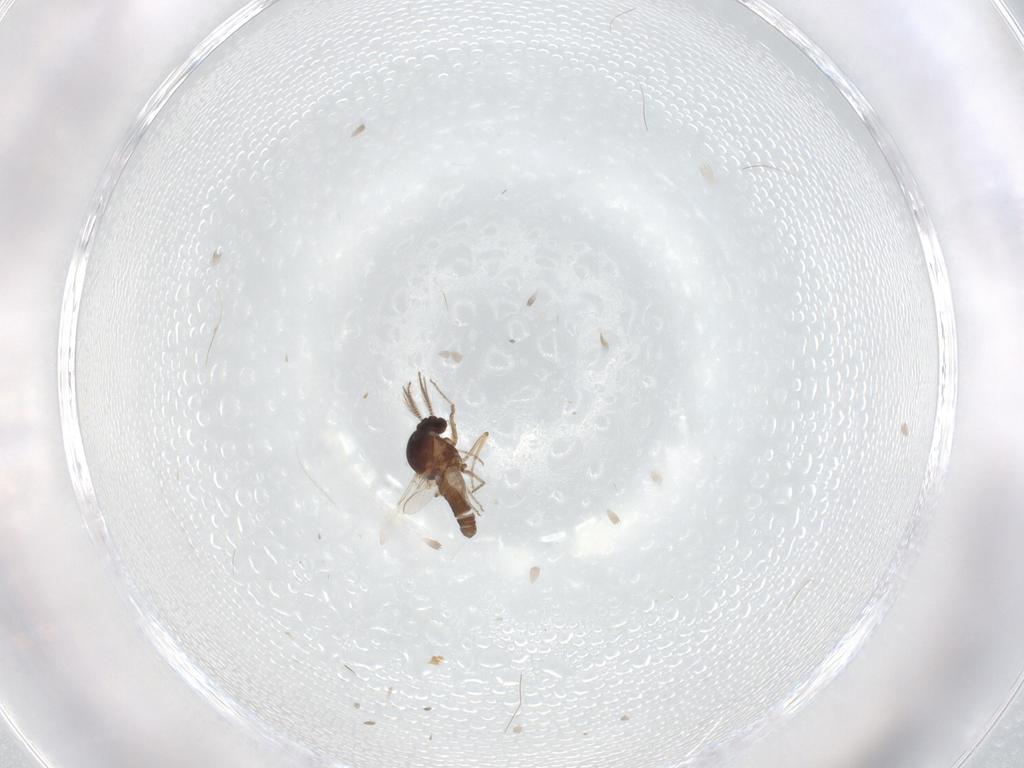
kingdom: Animalia
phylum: Arthropoda
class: Insecta
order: Diptera
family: Ceratopogonidae
